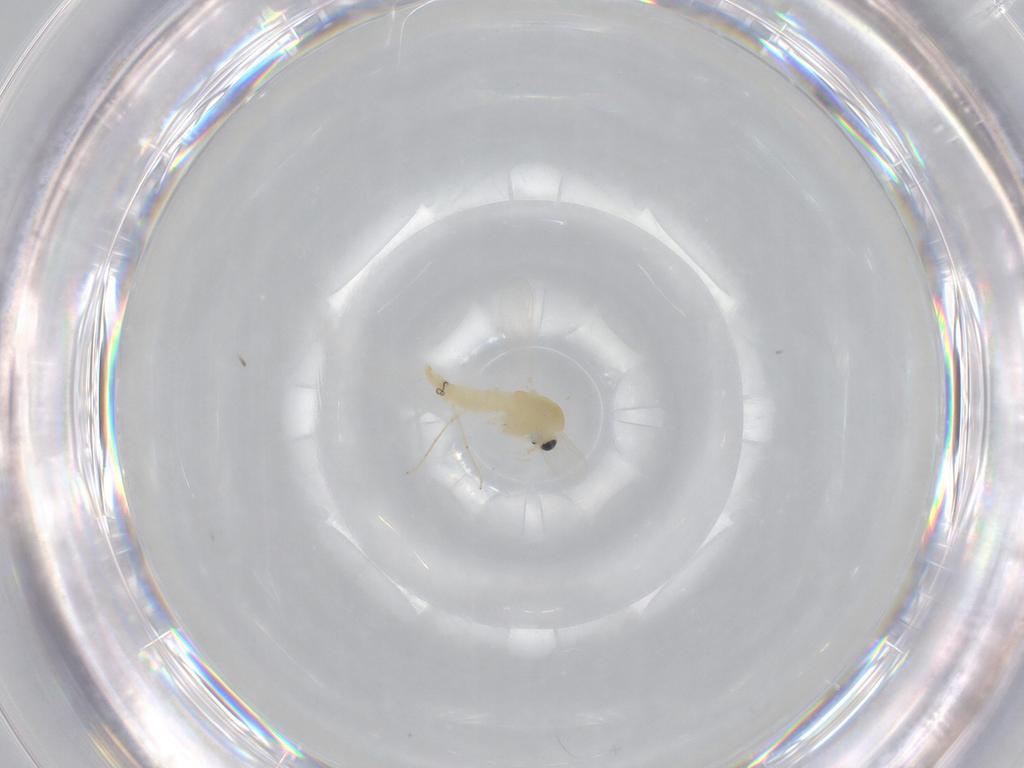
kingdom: Animalia
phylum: Arthropoda
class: Insecta
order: Diptera
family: Chironomidae
